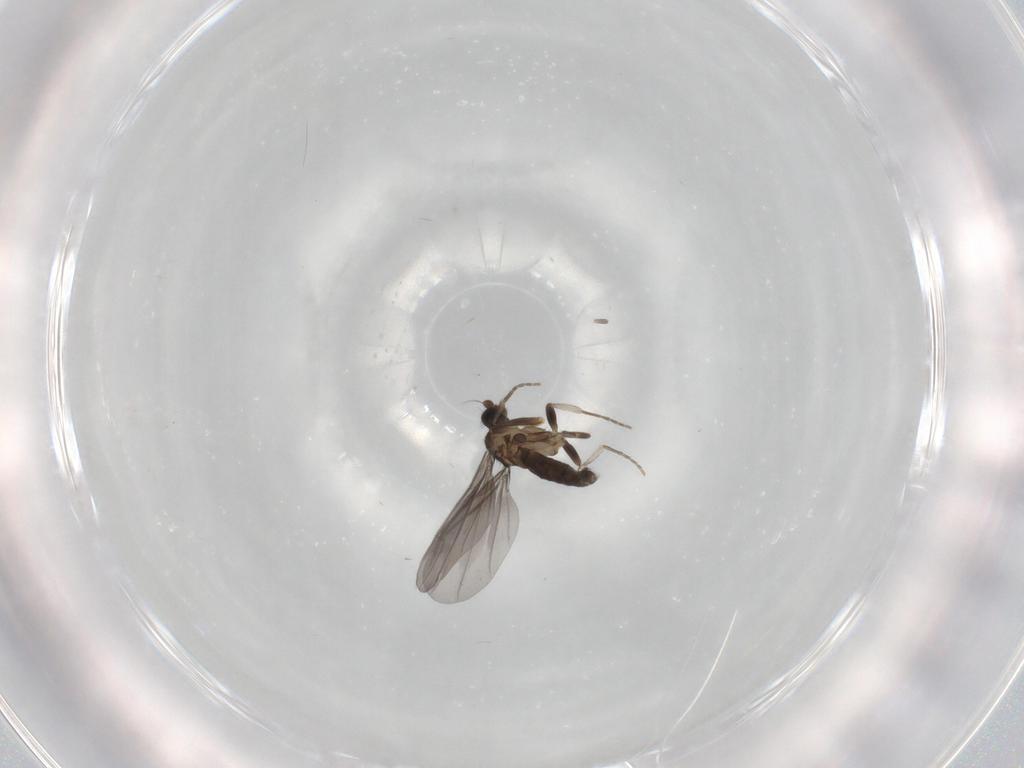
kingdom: Animalia
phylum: Arthropoda
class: Insecta
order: Diptera
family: Phoridae
